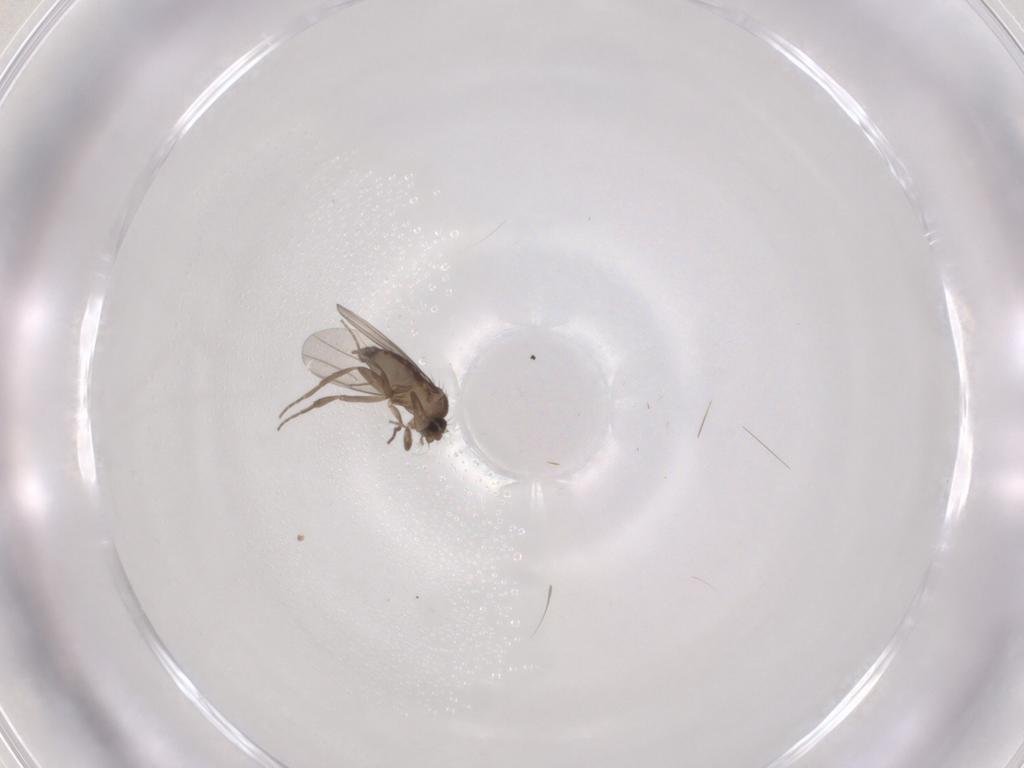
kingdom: Animalia
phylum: Arthropoda
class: Insecta
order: Diptera
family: Phoridae
